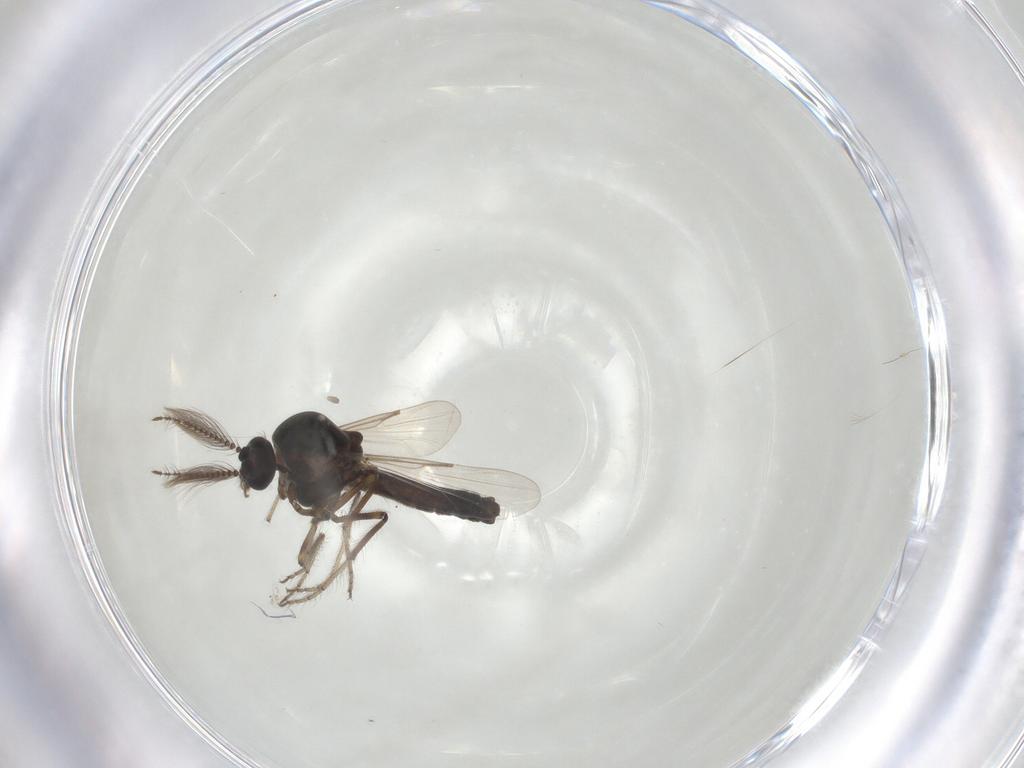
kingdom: Animalia
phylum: Arthropoda
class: Insecta
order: Diptera
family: Ceratopogonidae
